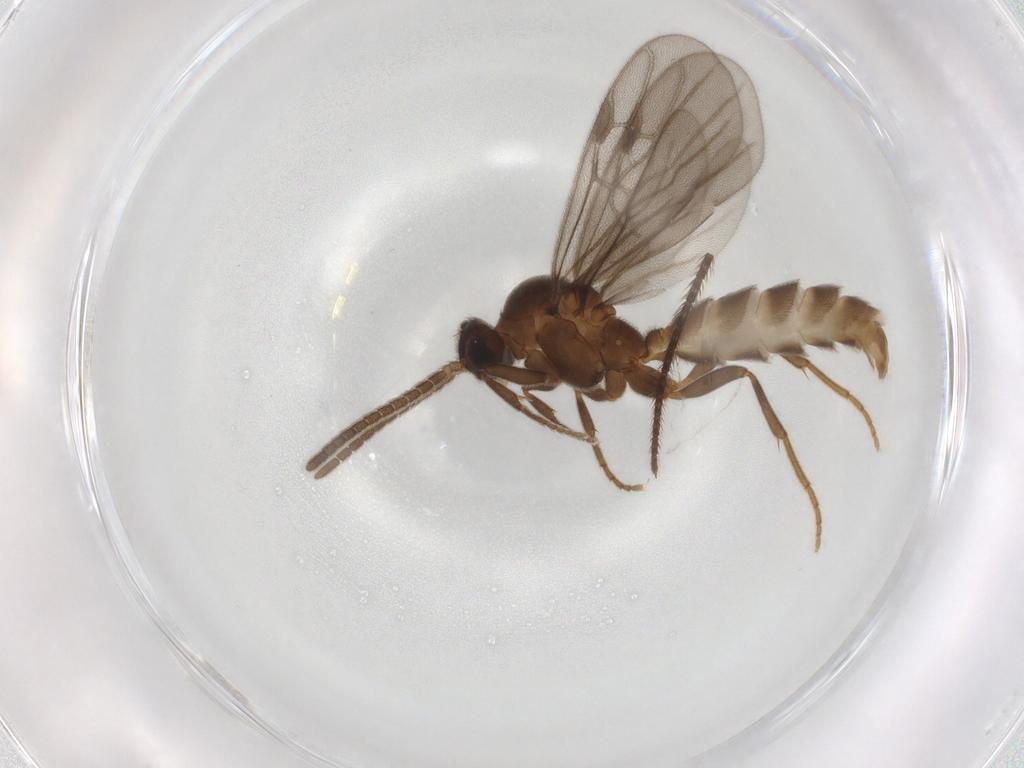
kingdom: Animalia
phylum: Arthropoda
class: Insecta
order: Hymenoptera
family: Formicidae
